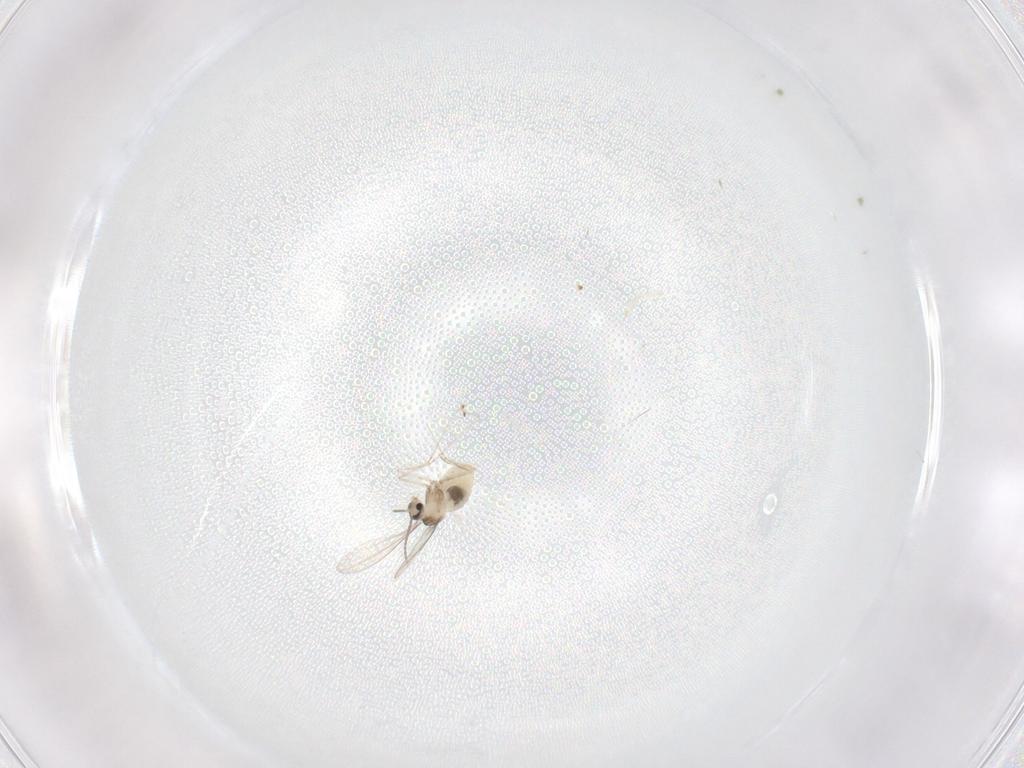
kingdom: Animalia
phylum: Arthropoda
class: Insecta
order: Diptera
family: Cecidomyiidae
